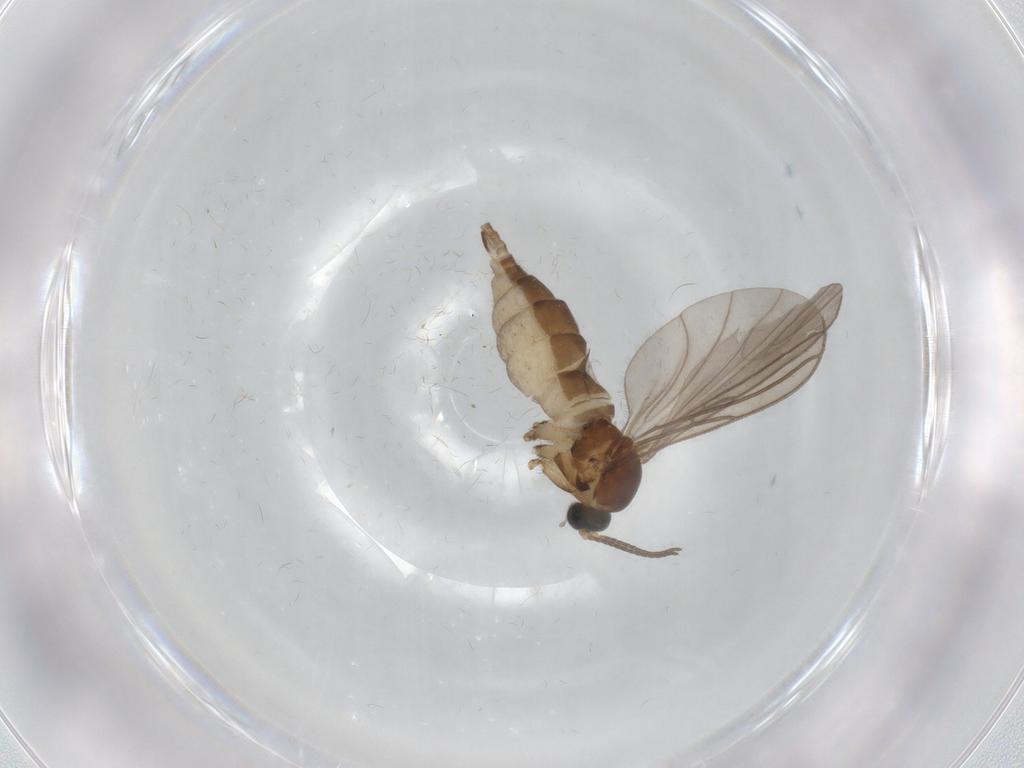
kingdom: Animalia
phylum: Arthropoda
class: Insecta
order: Diptera
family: Sciaridae
